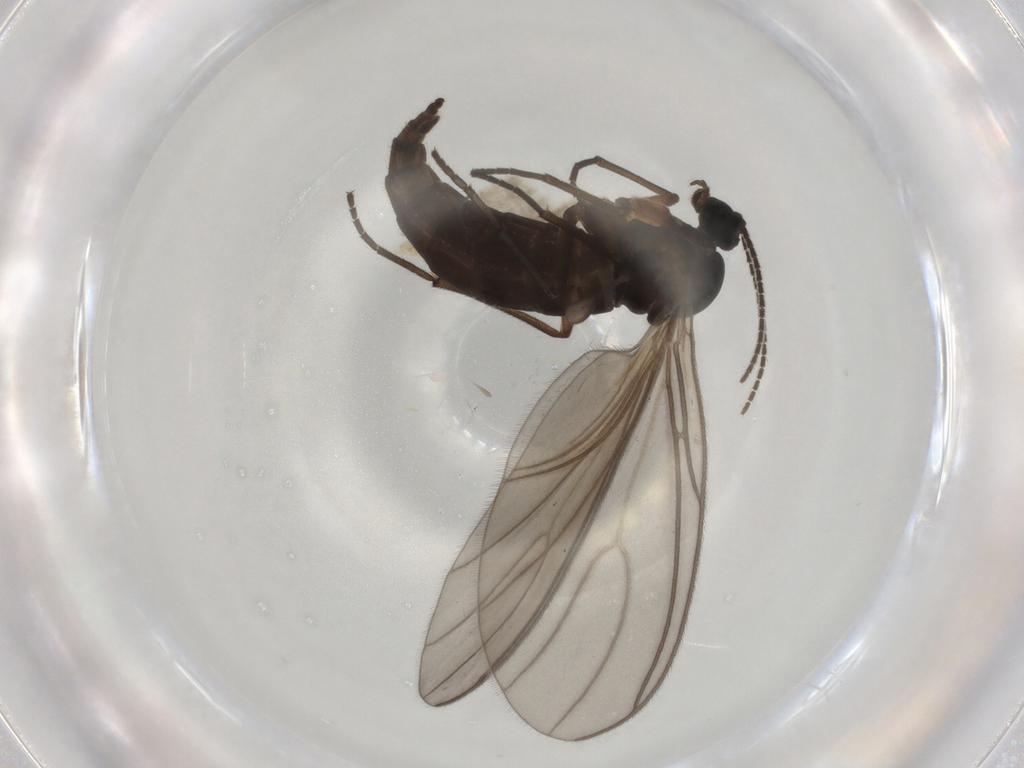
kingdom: Animalia
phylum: Arthropoda
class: Insecta
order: Diptera
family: Sciaridae
